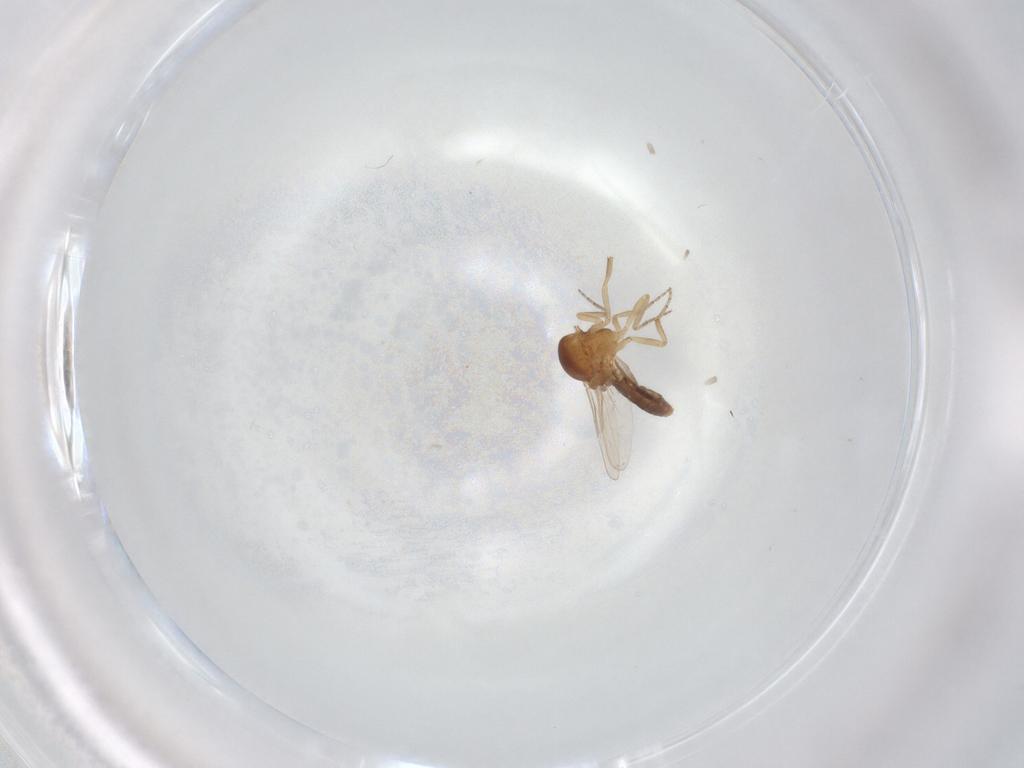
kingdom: Animalia
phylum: Arthropoda
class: Insecta
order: Diptera
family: Ceratopogonidae
